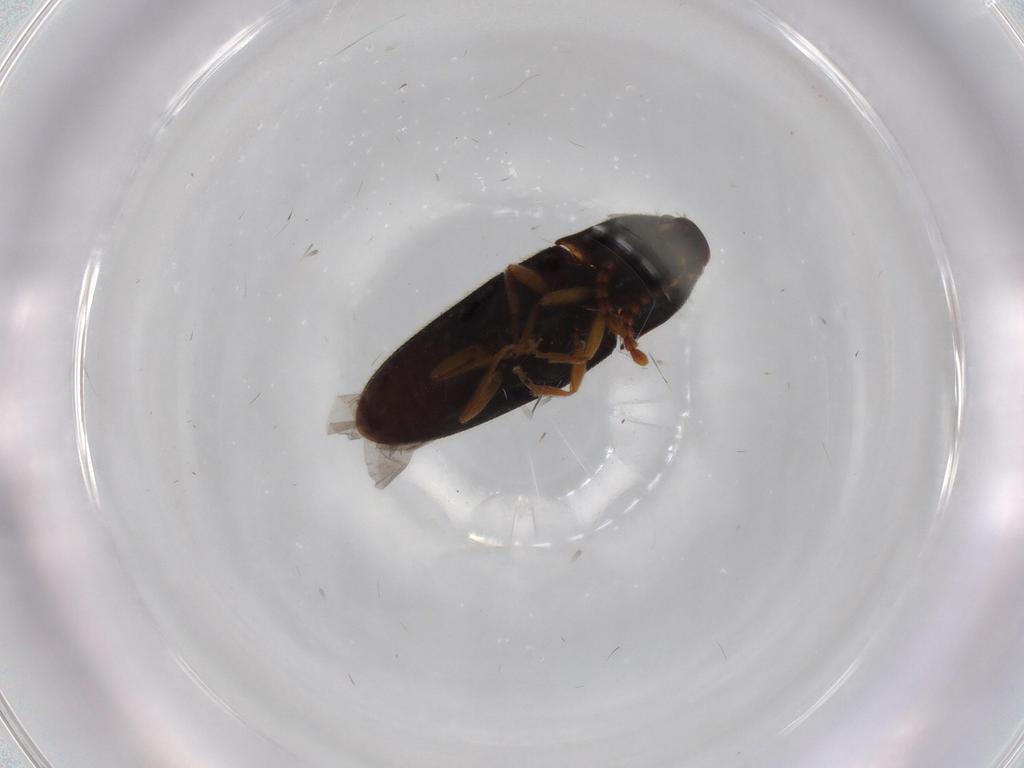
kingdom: Animalia
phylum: Arthropoda
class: Insecta
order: Coleoptera
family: Elateridae
